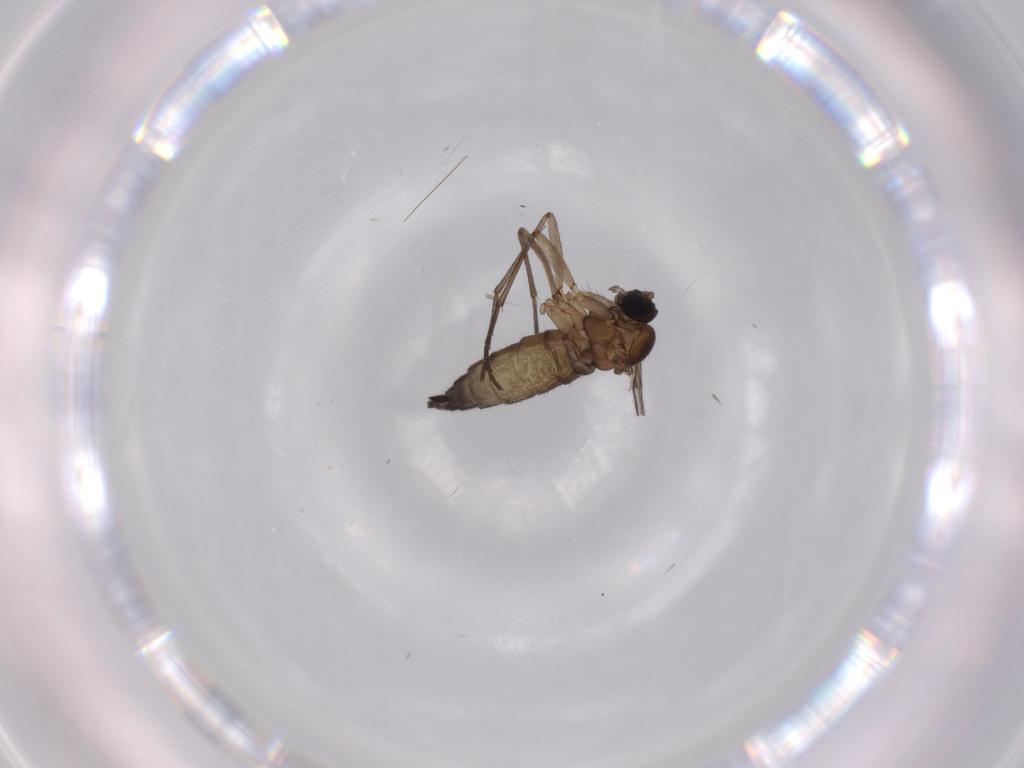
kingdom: Animalia
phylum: Arthropoda
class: Insecta
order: Diptera
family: Sciaridae
